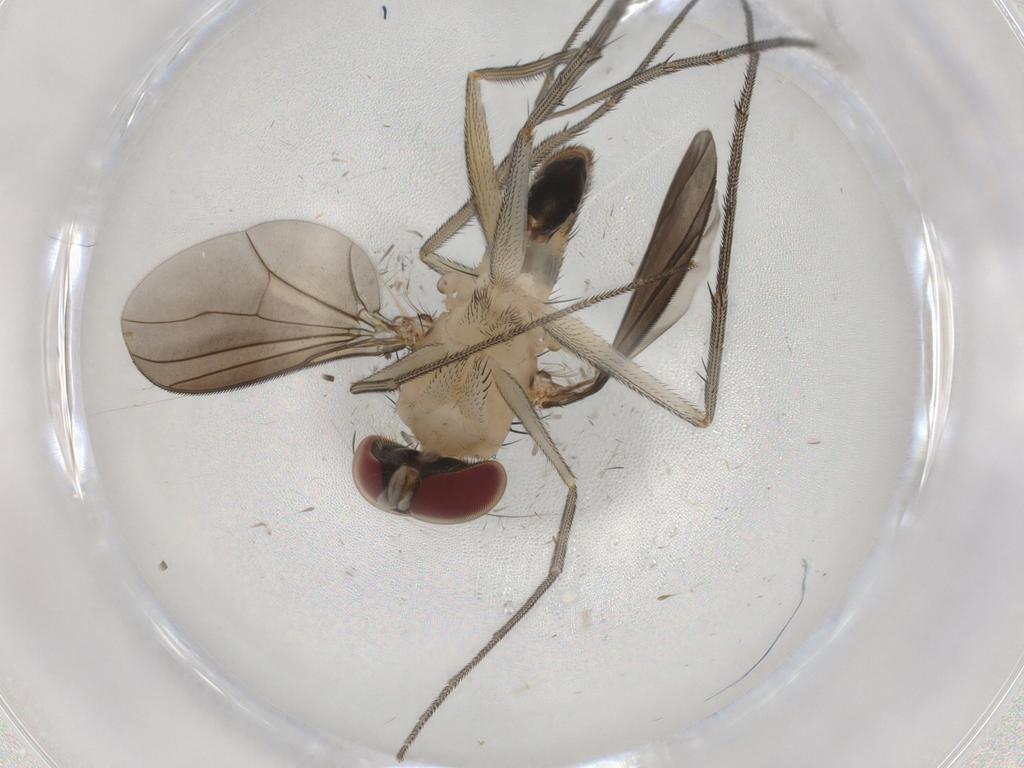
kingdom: Animalia
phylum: Arthropoda
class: Insecta
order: Diptera
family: Dolichopodidae
